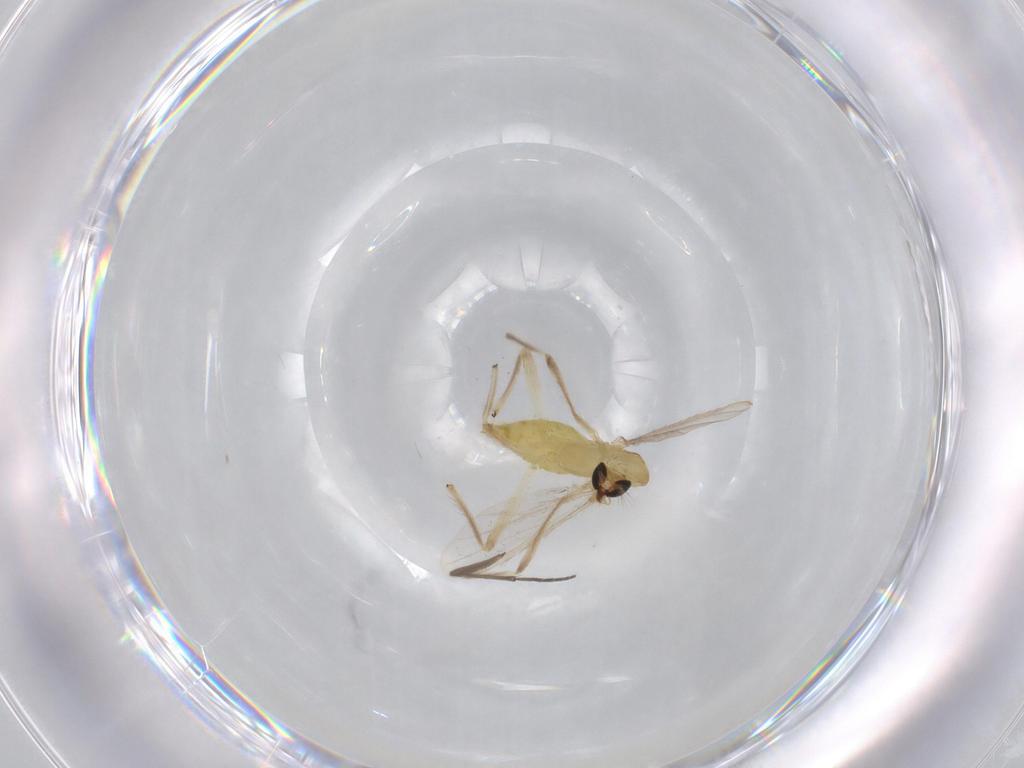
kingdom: Animalia
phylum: Arthropoda
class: Insecta
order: Diptera
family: Chironomidae
